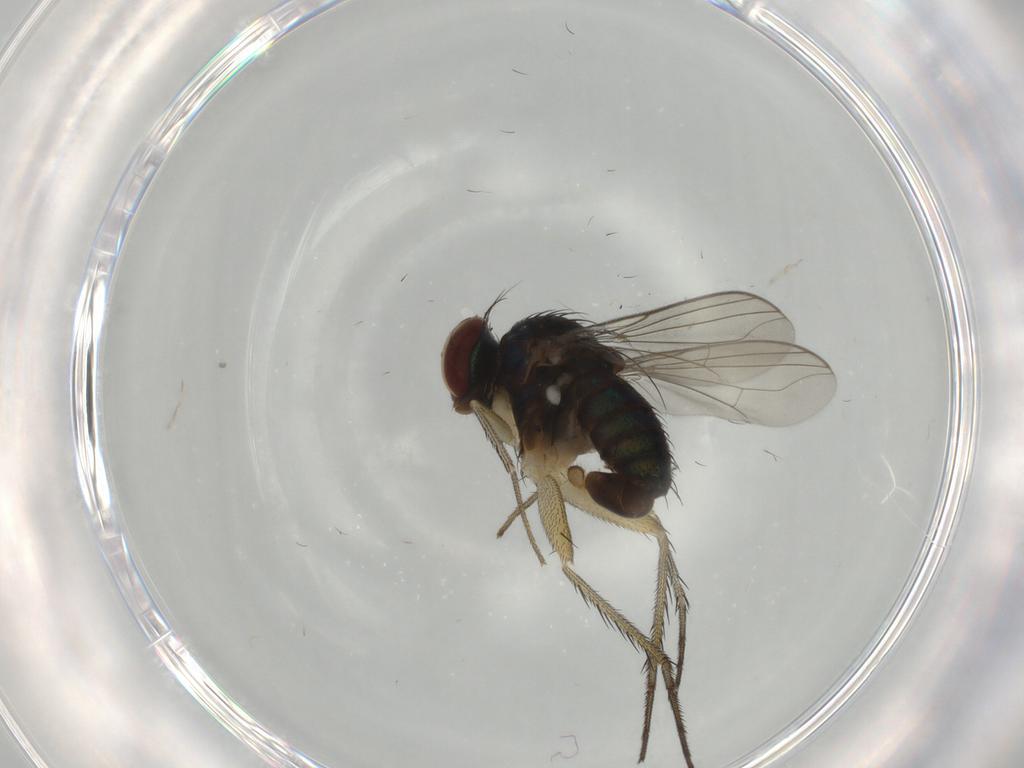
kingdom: Animalia
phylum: Arthropoda
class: Insecta
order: Diptera
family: Dolichopodidae
